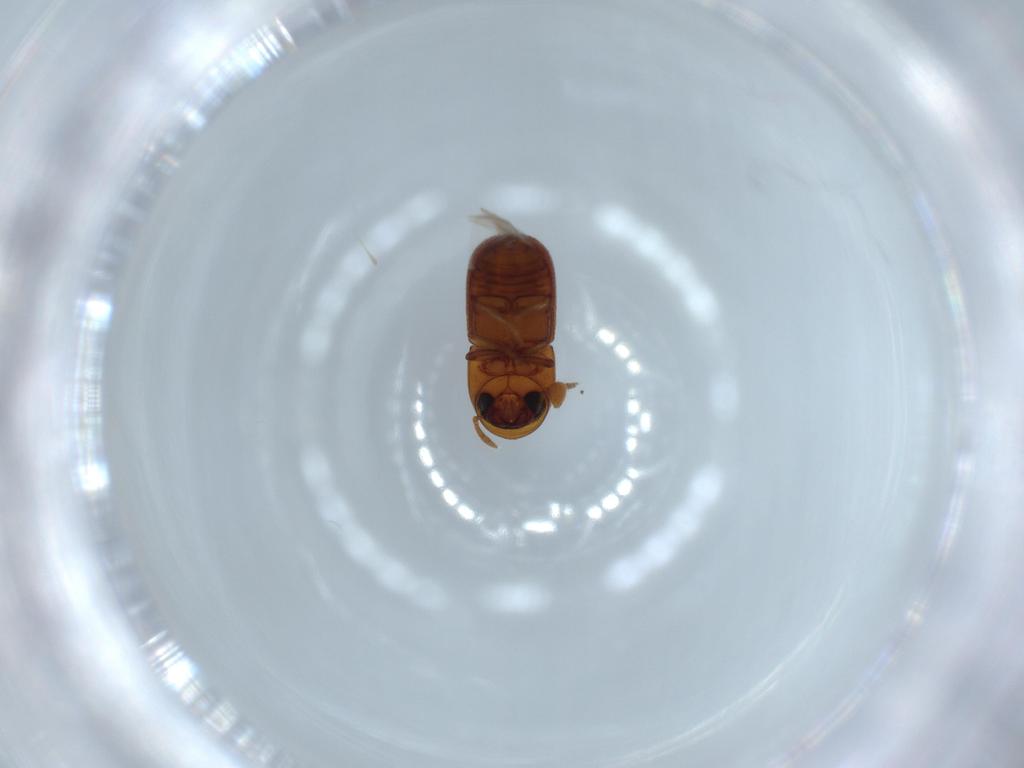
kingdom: Animalia
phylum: Arthropoda
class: Insecta
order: Coleoptera
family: Curculionidae
